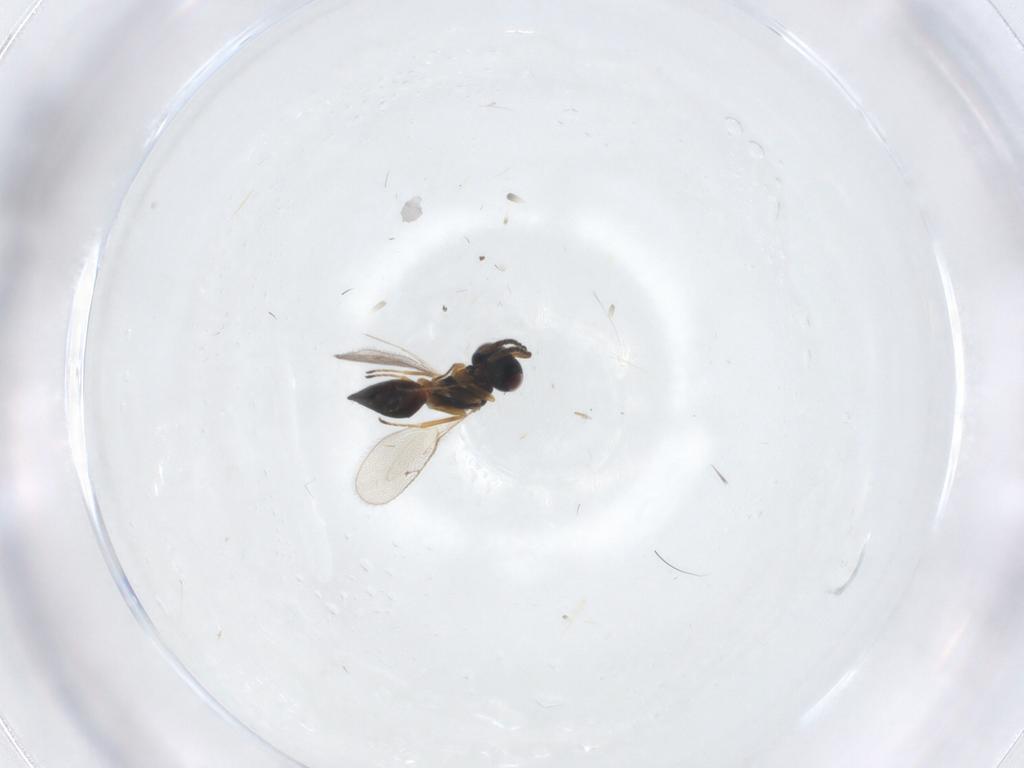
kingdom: Animalia
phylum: Arthropoda
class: Insecta
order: Hymenoptera
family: Pteromalidae
